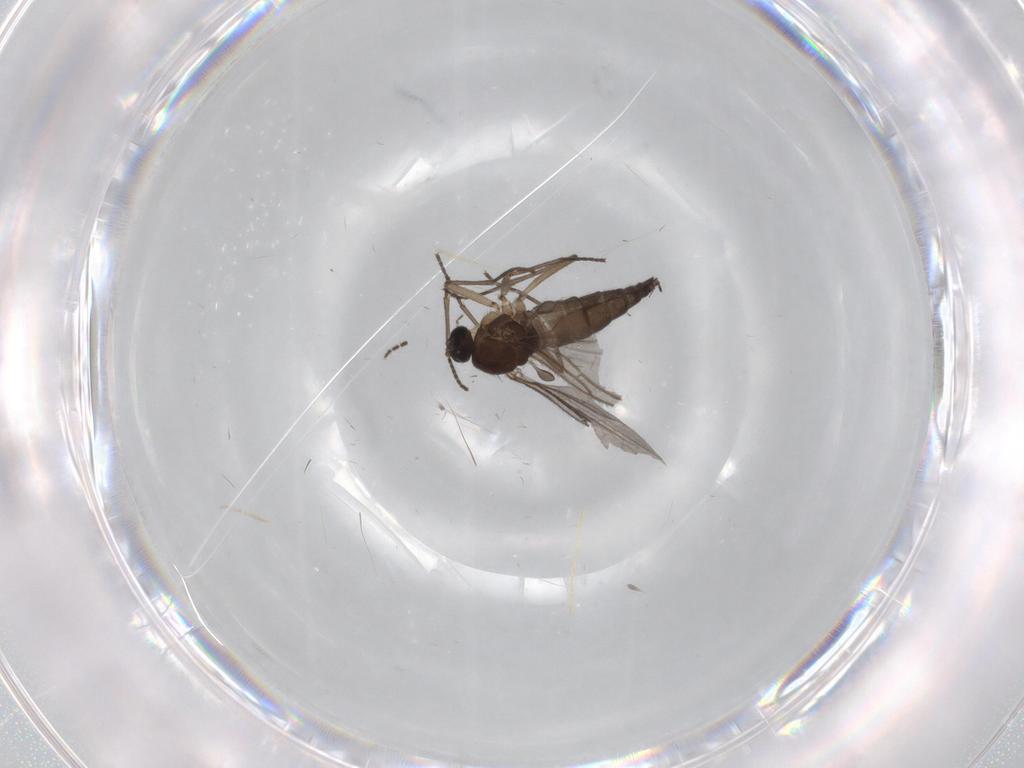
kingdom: Animalia
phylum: Arthropoda
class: Insecta
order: Diptera
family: Sciaridae
